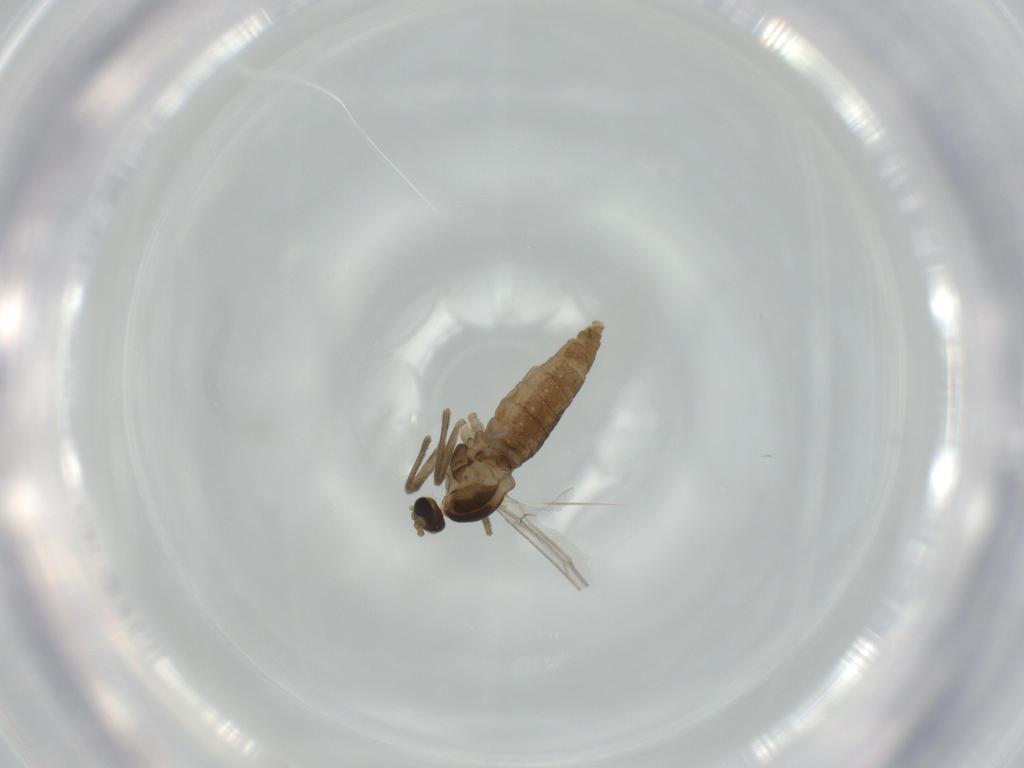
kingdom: Animalia
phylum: Arthropoda
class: Insecta
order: Diptera
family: Cecidomyiidae
